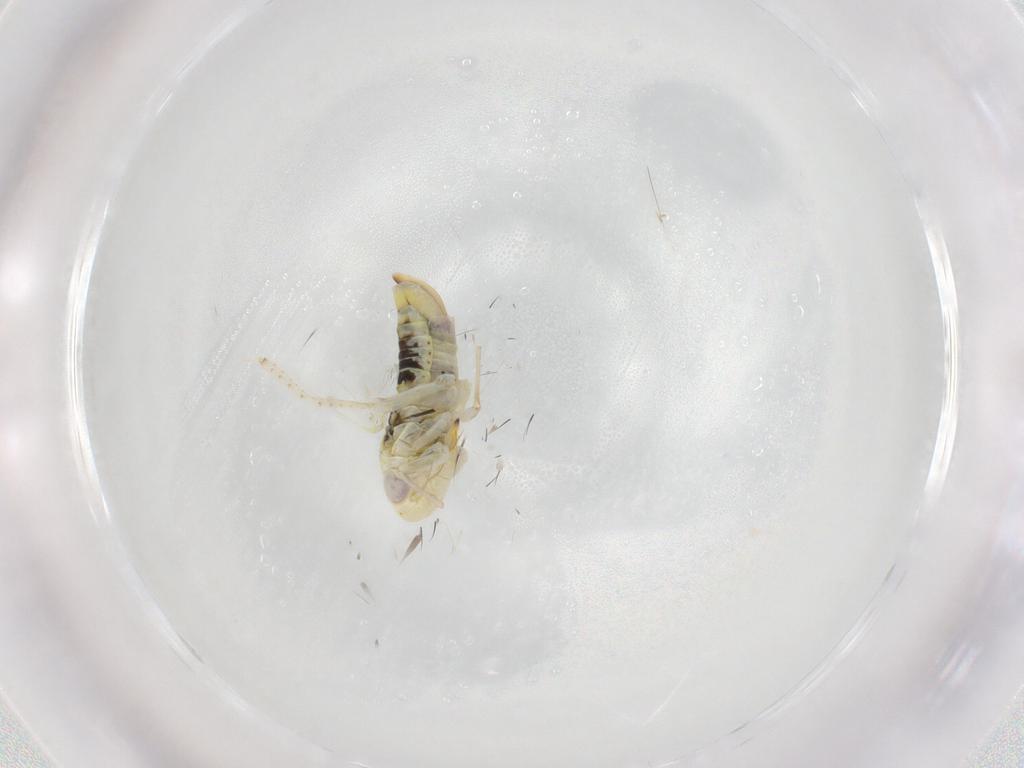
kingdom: Animalia
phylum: Arthropoda
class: Insecta
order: Hemiptera
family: Cicadellidae
